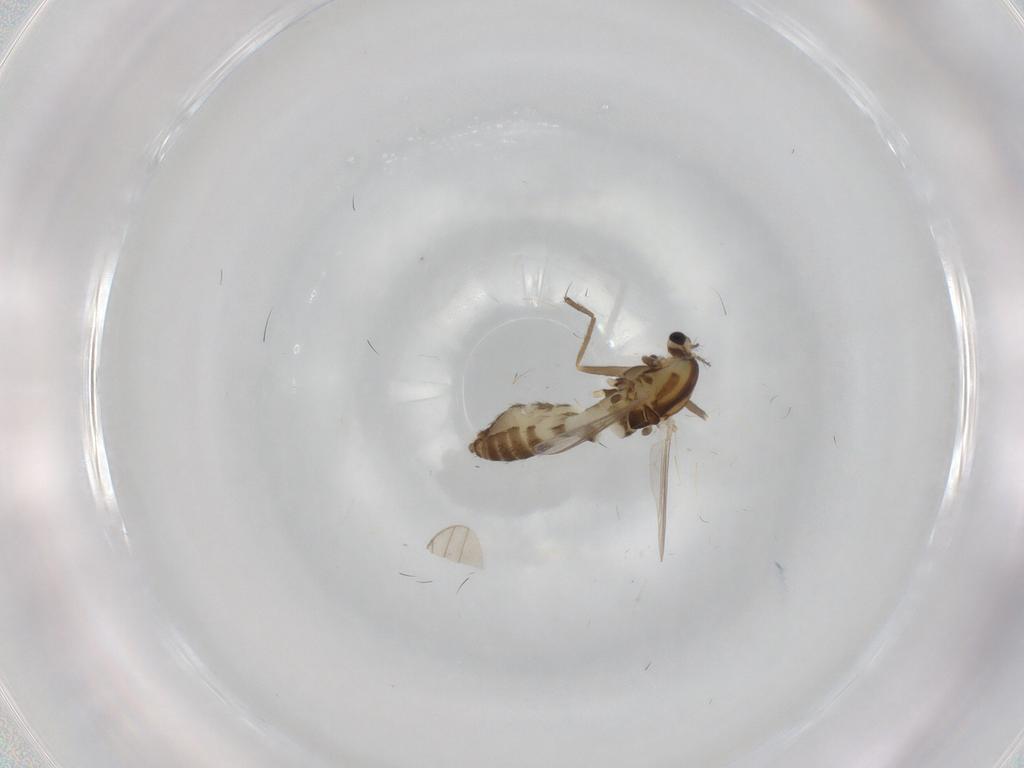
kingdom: Animalia
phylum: Arthropoda
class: Insecta
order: Diptera
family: Chironomidae
